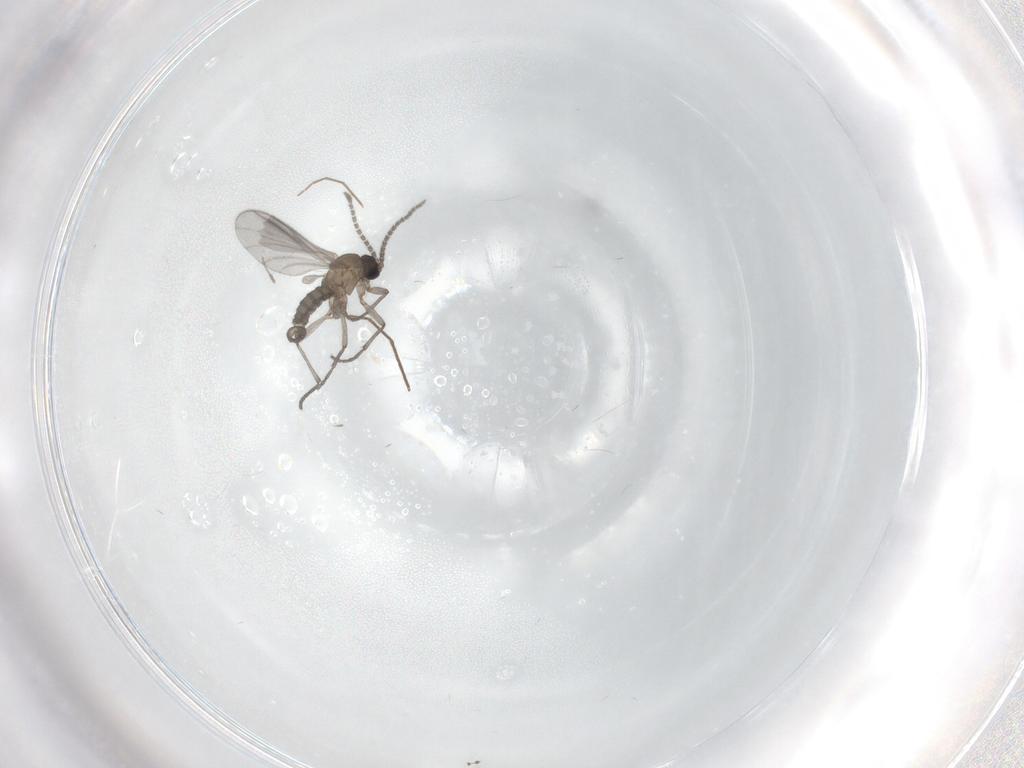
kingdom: Animalia
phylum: Arthropoda
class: Insecta
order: Diptera
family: Sciaridae
